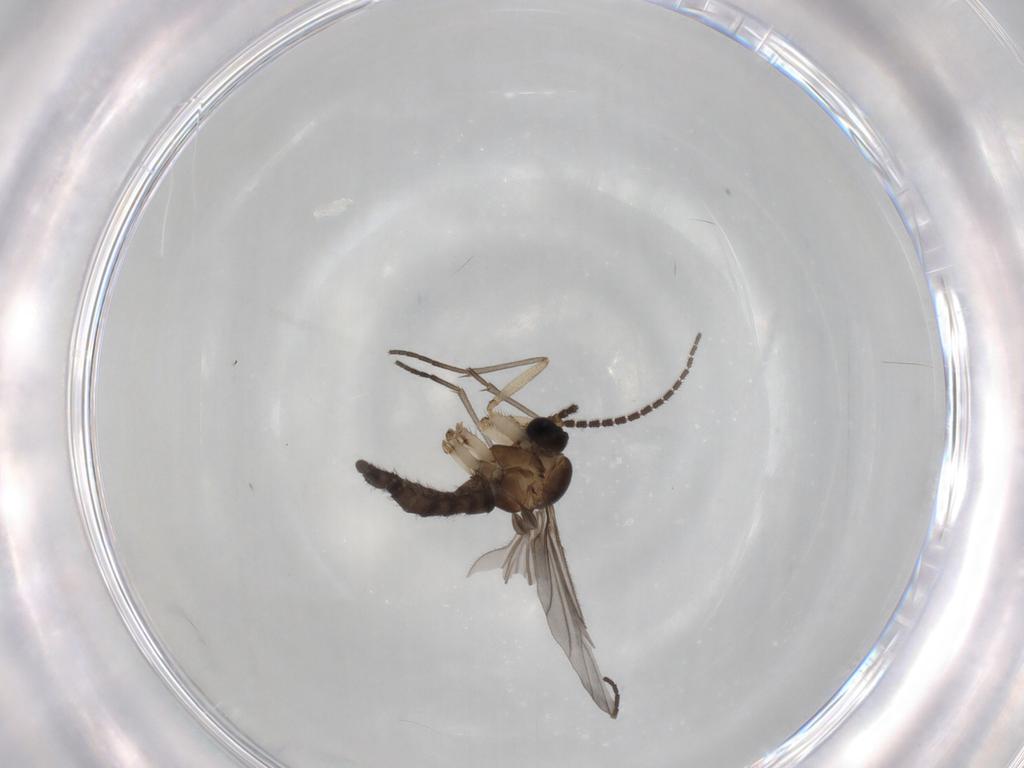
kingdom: Animalia
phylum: Arthropoda
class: Insecta
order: Diptera
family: Sciaridae
